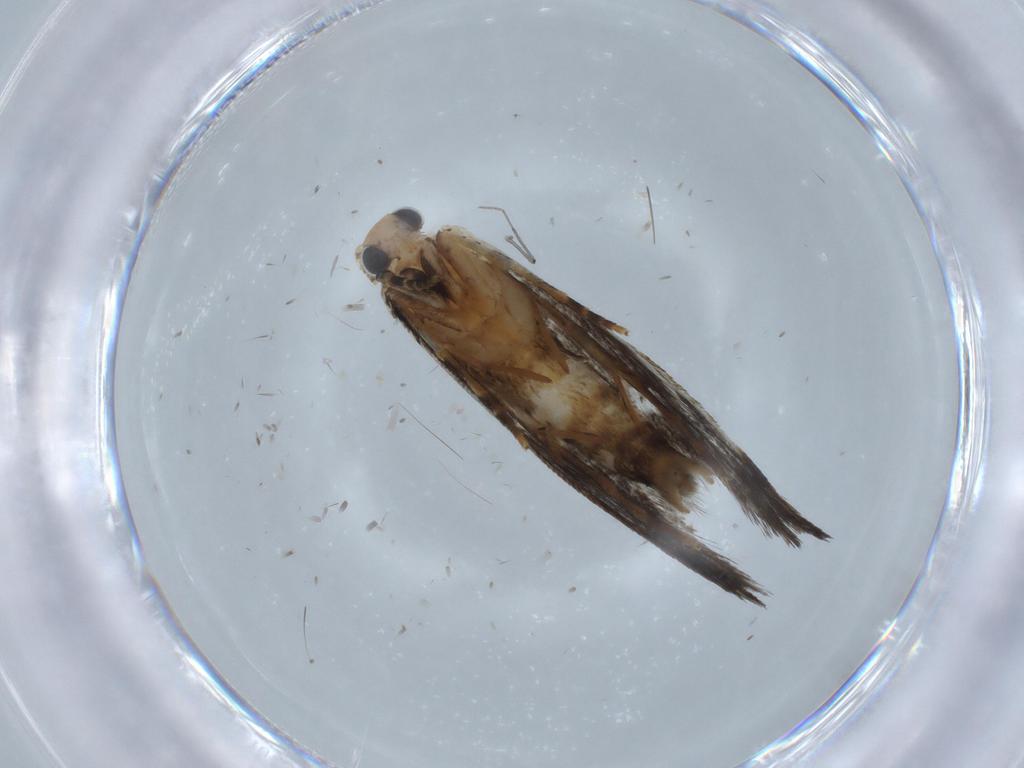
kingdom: Animalia
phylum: Arthropoda
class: Insecta
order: Lepidoptera
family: Tineidae
